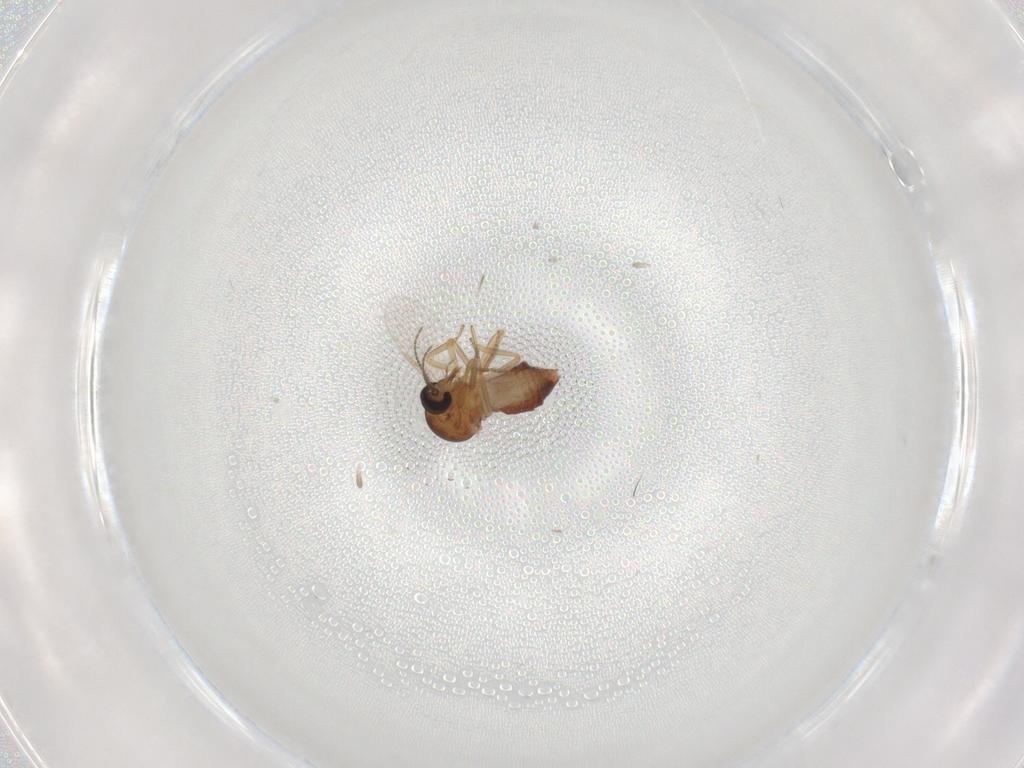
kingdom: Animalia
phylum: Arthropoda
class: Insecta
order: Diptera
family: Ceratopogonidae
